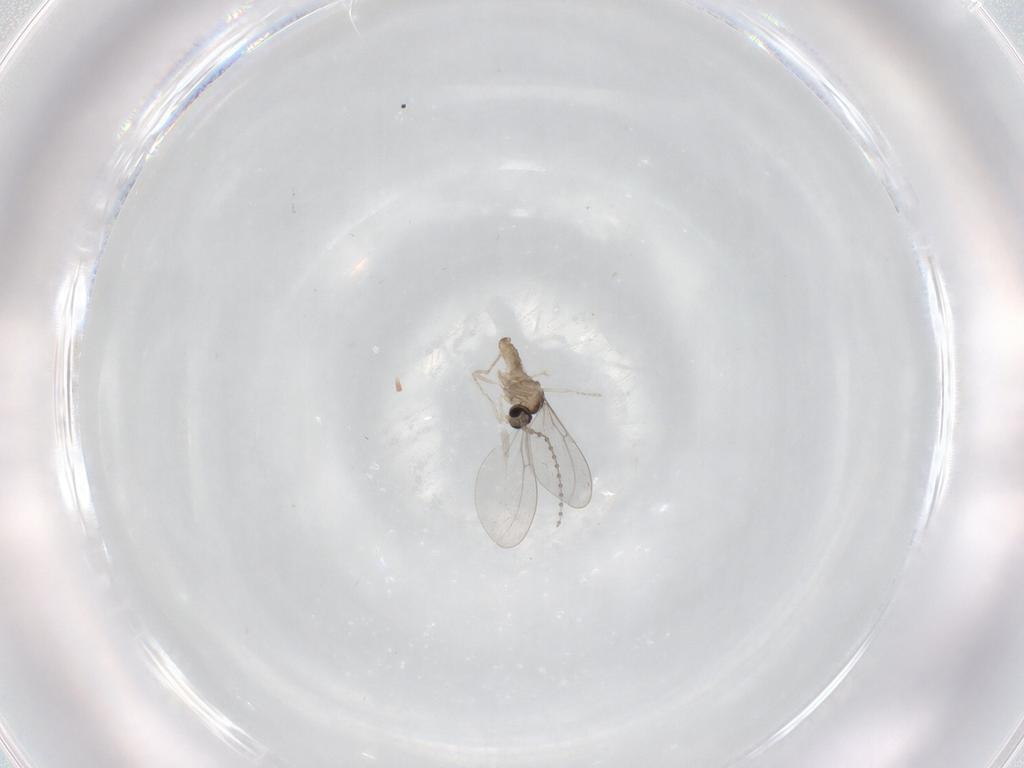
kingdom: Animalia
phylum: Arthropoda
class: Insecta
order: Diptera
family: Cecidomyiidae
